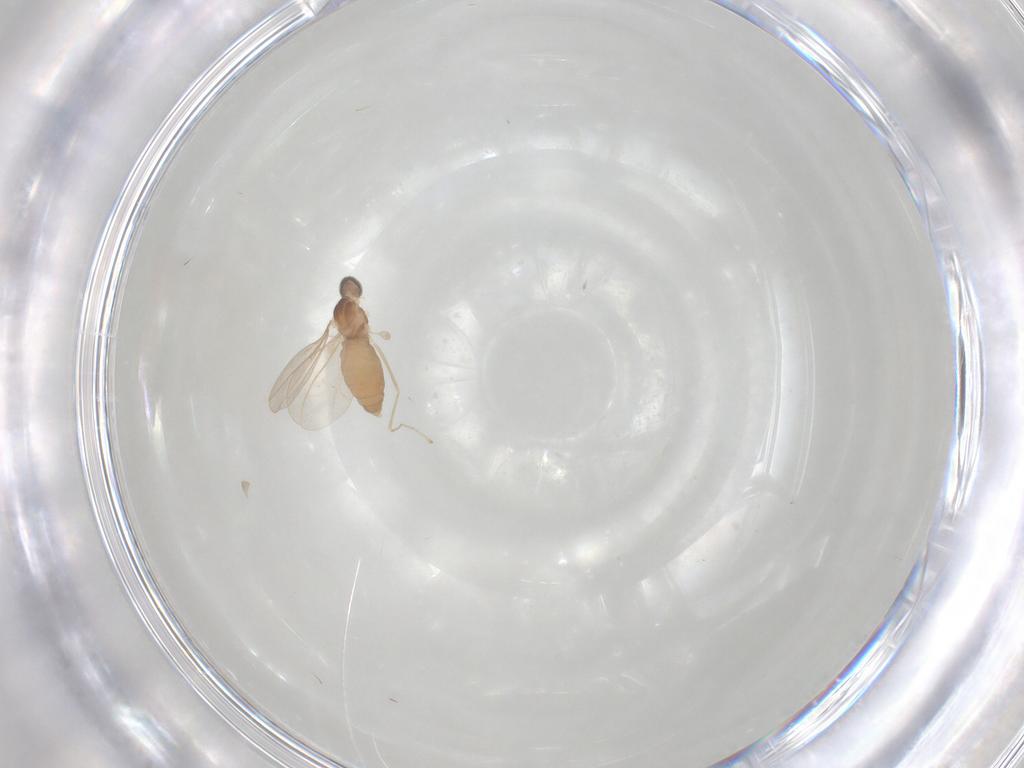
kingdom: Animalia
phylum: Arthropoda
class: Insecta
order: Diptera
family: Cecidomyiidae
